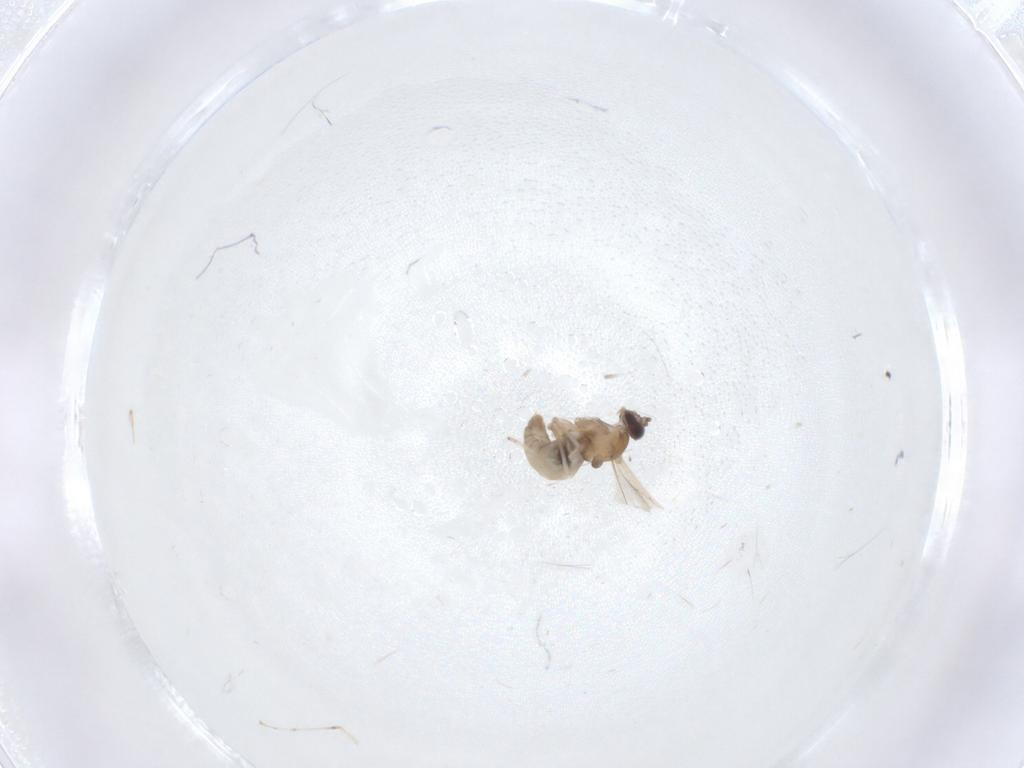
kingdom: Animalia
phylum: Arthropoda
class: Insecta
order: Diptera
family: Cecidomyiidae
